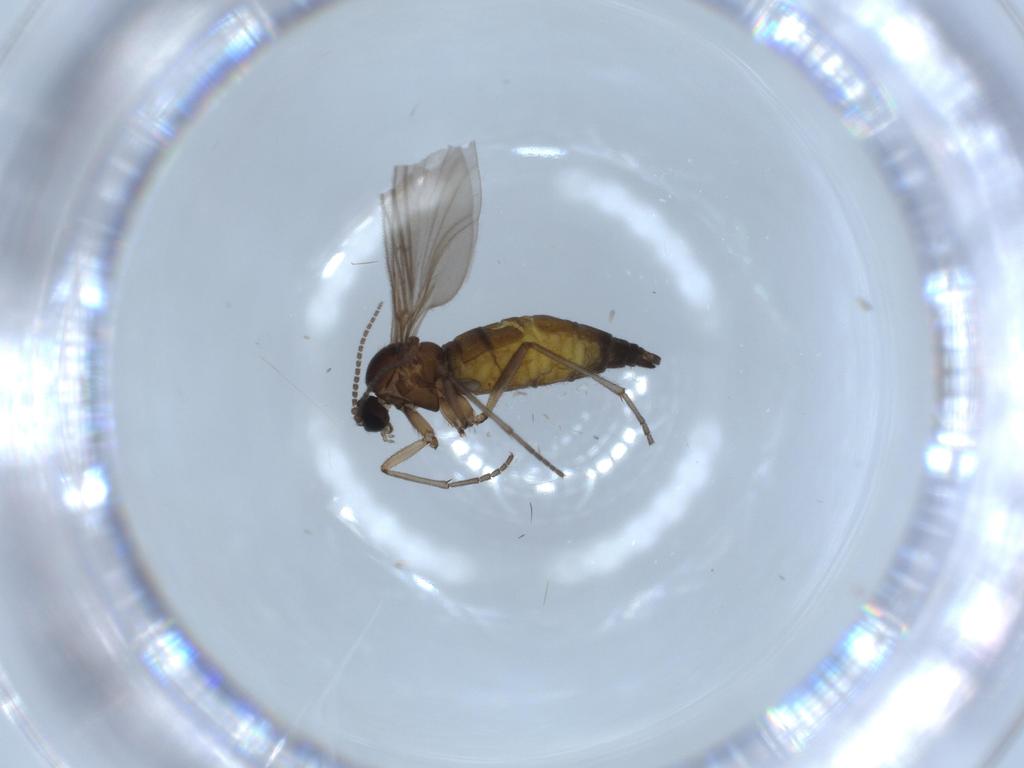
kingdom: Animalia
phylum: Arthropoda
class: Insecta
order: Diptera
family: Sciaridae
